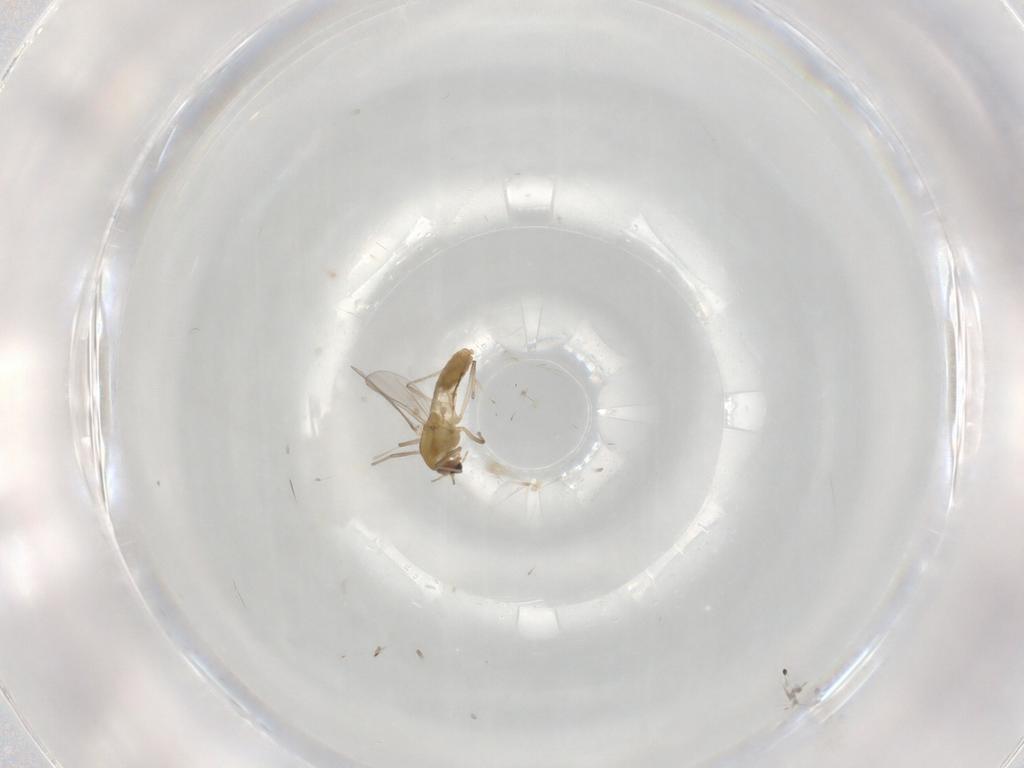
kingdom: Animalia
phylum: Arthropoda
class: Insecta
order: Diptera
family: Chironomidae
